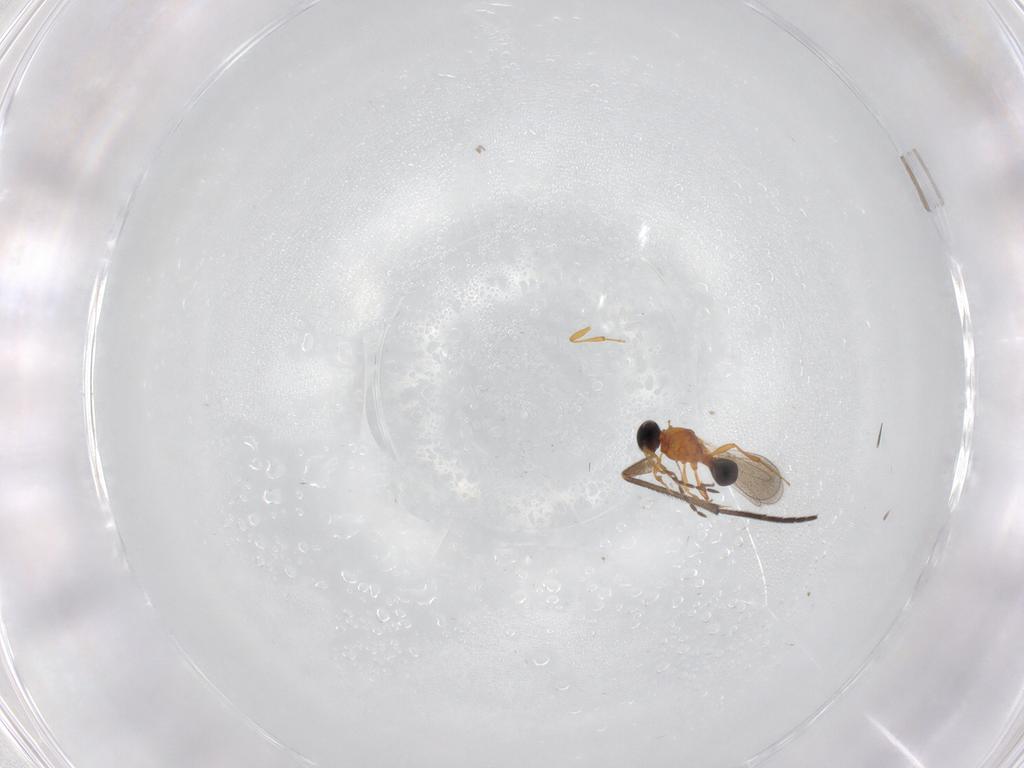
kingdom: Animalia
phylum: Arthropoda
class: Insecta
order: Hymenoptera
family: Platygastridae
